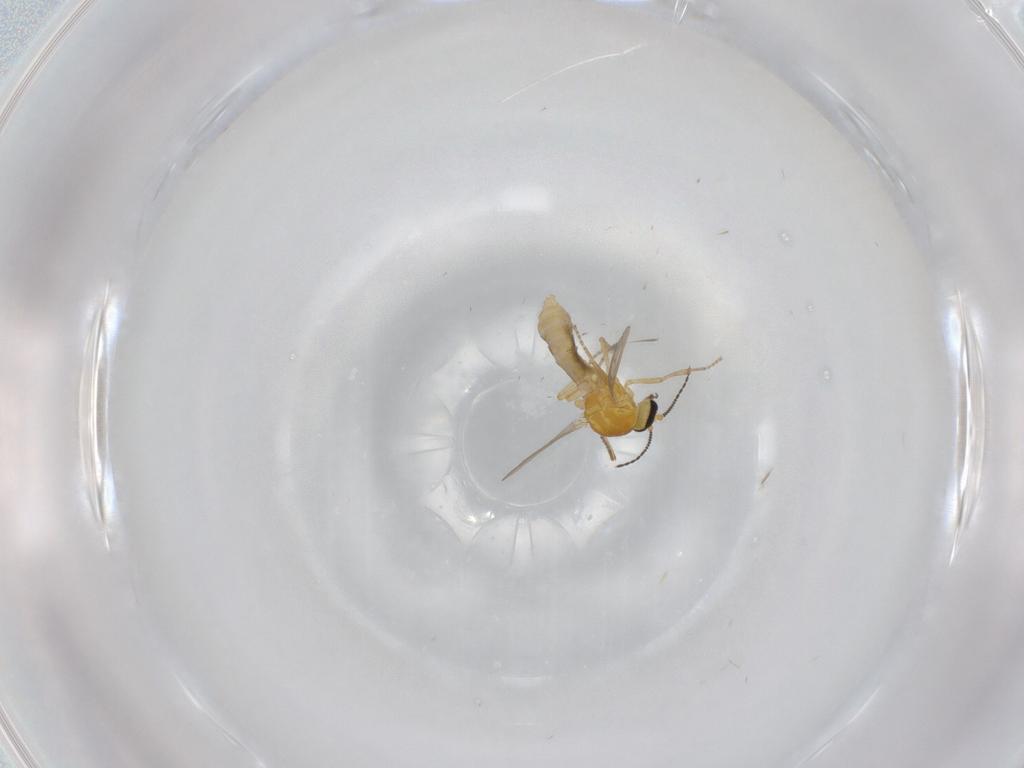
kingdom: Animalia
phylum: Arthropoda
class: Insecta
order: Diptera
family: Ceratopogonidae
